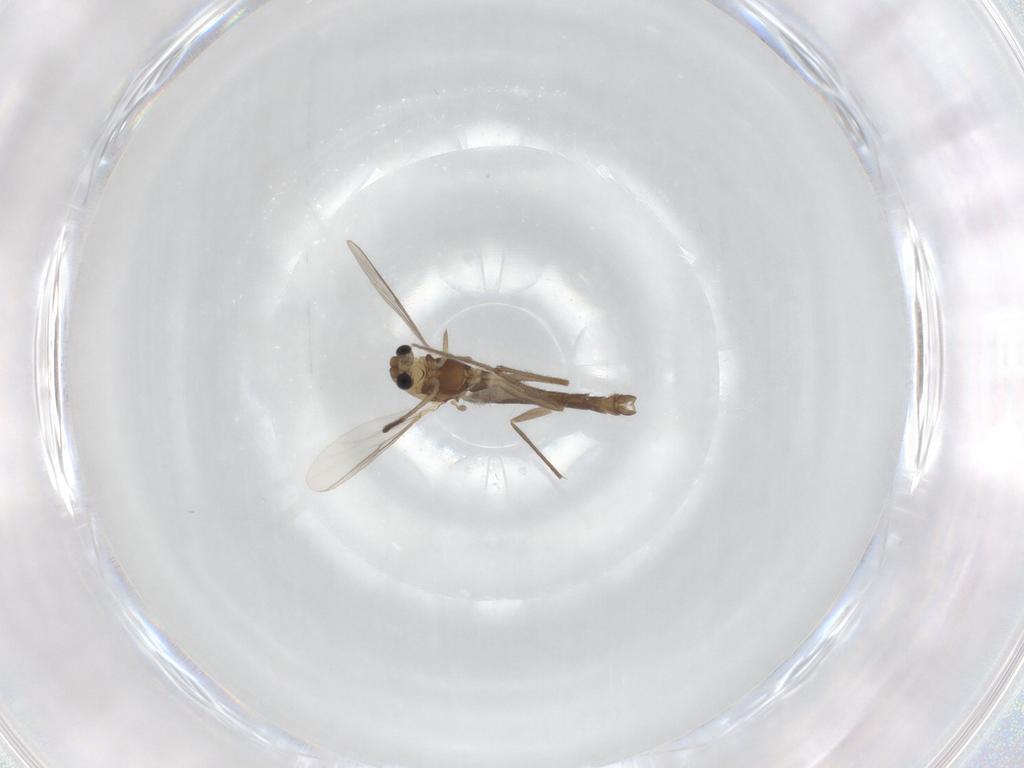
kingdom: Animalia
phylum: Arthropoda
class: Insecta
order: Diptera
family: Chironomidae
